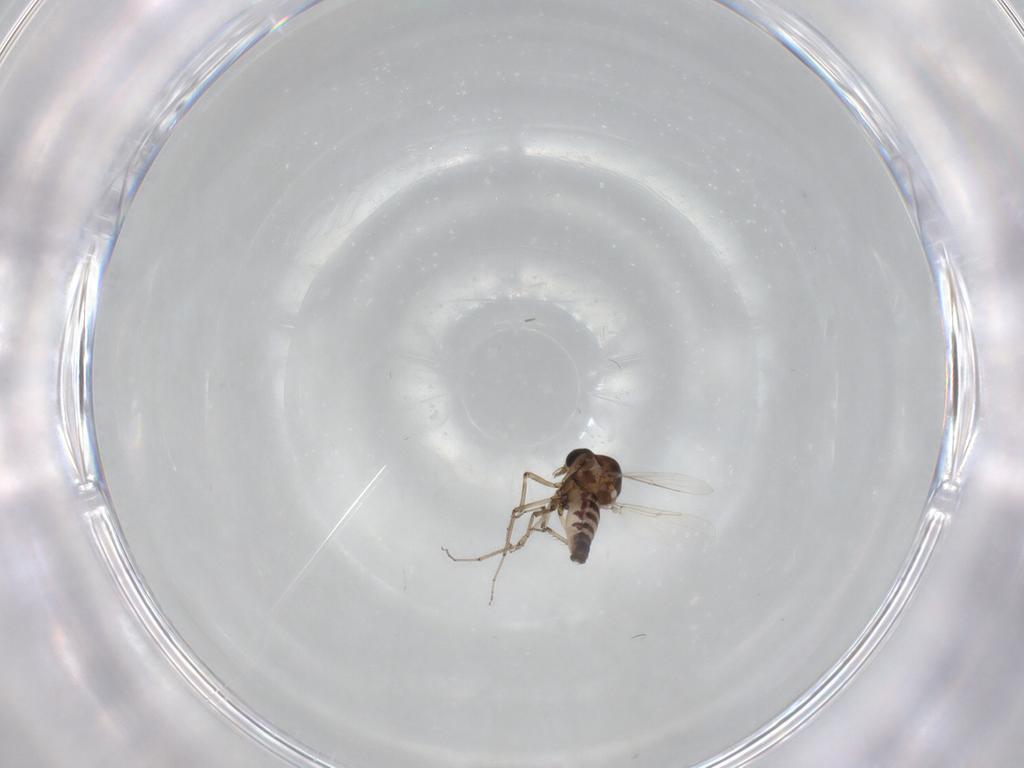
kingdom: Animalia
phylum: Arthropoda
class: Insecta
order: Diptera
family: Ceratopogonidae
